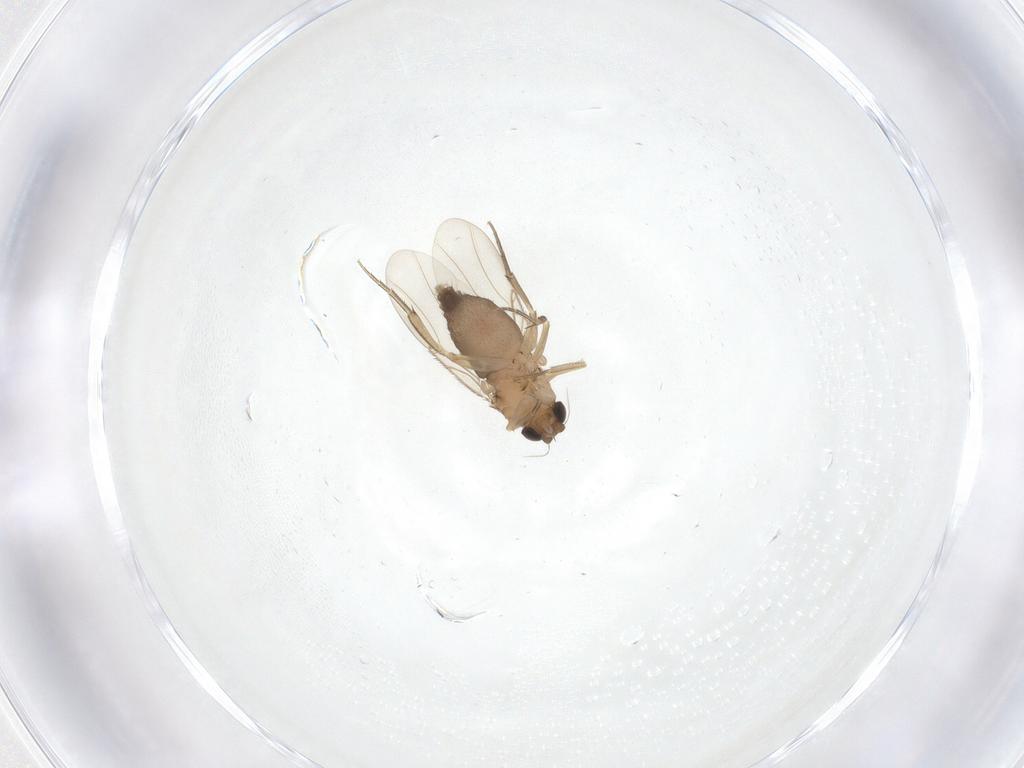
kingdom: Animalia
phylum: Arthropoda
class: Insecta
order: Diptera
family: Phoridae
